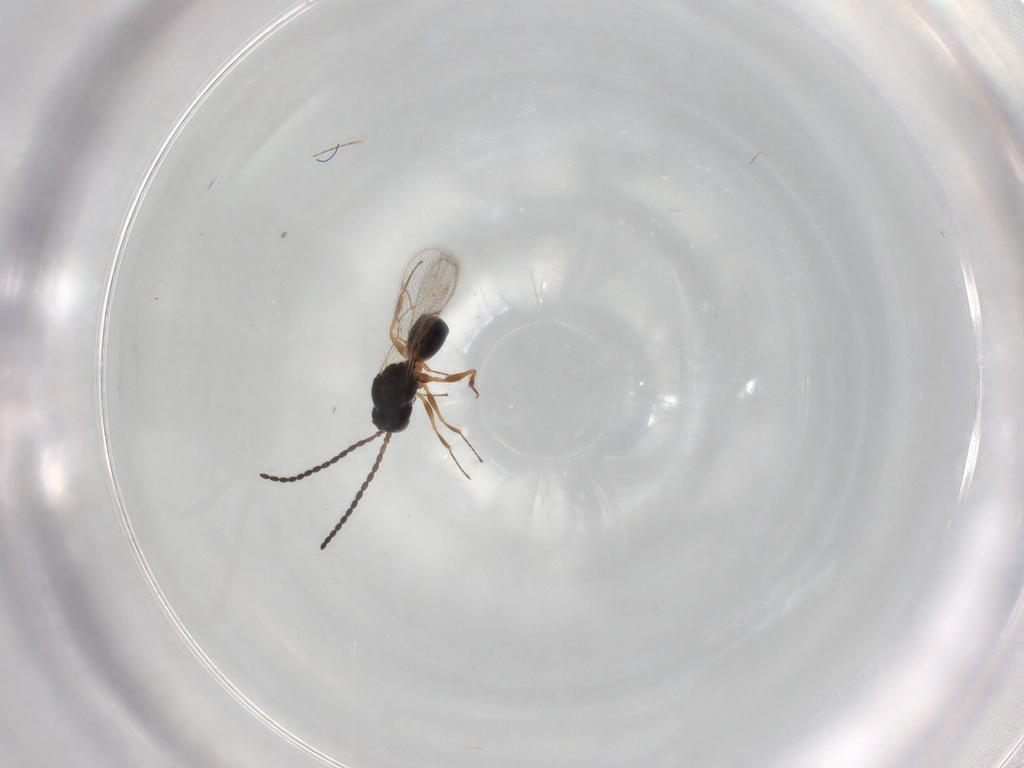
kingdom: Animalia
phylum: Arthropoda
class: Insecta
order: Hymenoptera
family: Figitidae
